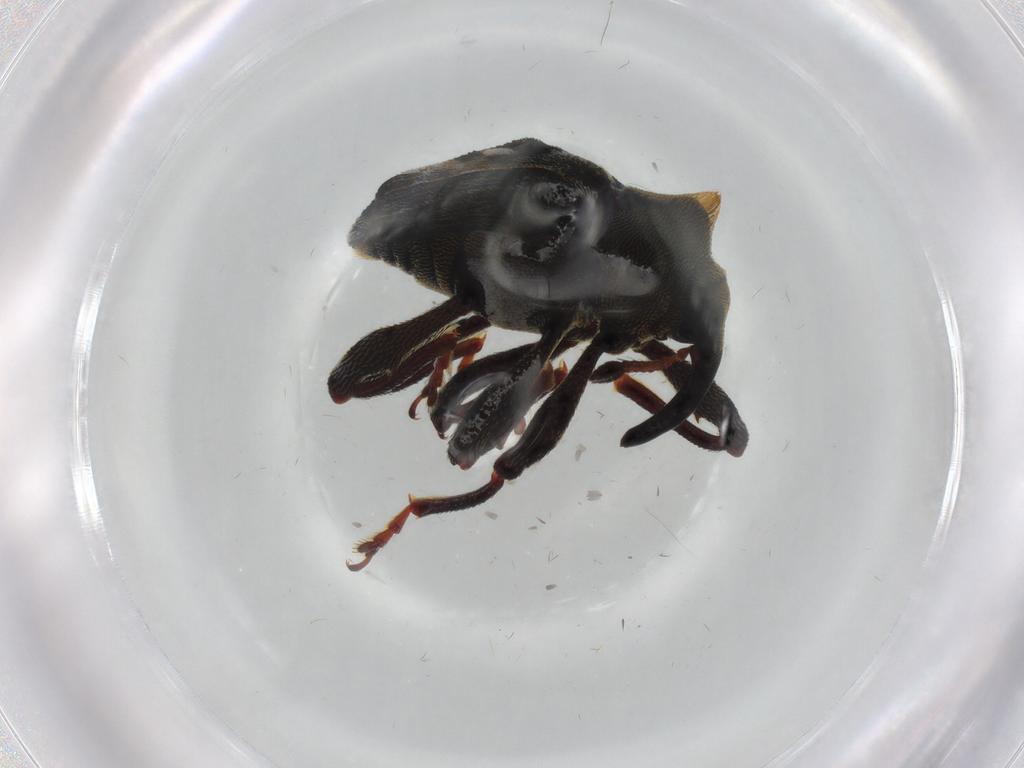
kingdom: Animalia
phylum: Arthropoda
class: Insecta
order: Coleoptera
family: Curculionidae
